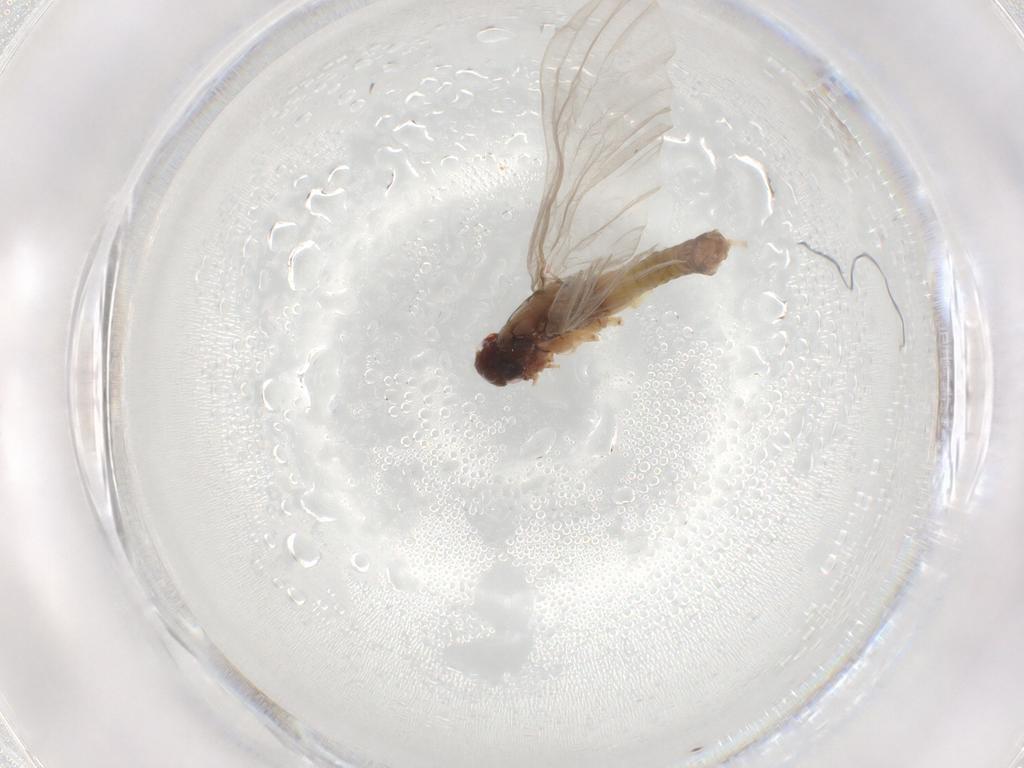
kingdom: Animalia
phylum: Arthropoda
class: Insecta
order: Ephemeroptera
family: Baetidae
